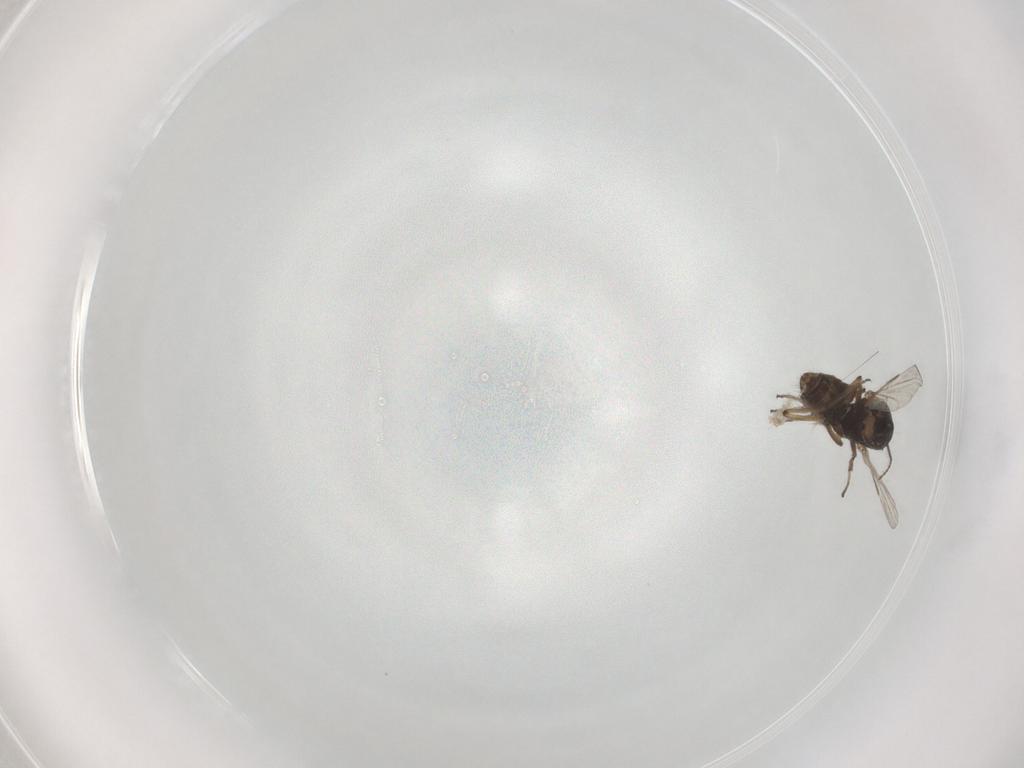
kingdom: Animalia
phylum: Arthropoda
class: Insecta
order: Diptera
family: Ceratopogonidae
